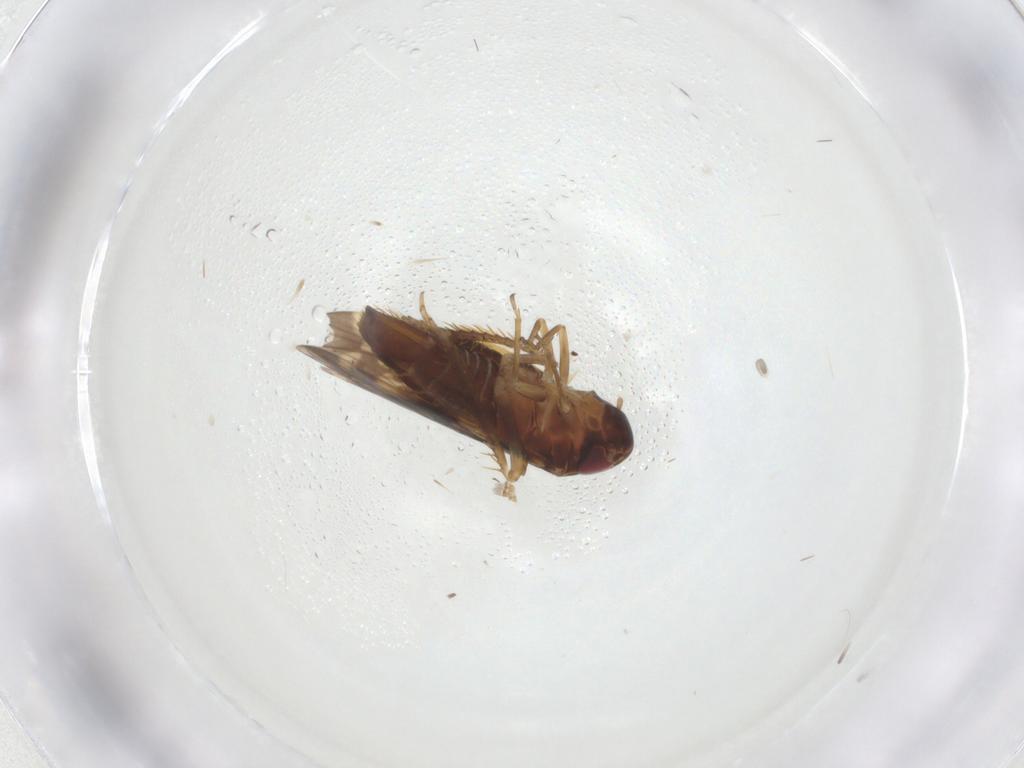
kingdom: Animalia
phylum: Arthropoda
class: Insecta
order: Hemiptera
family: Cicadellidae
